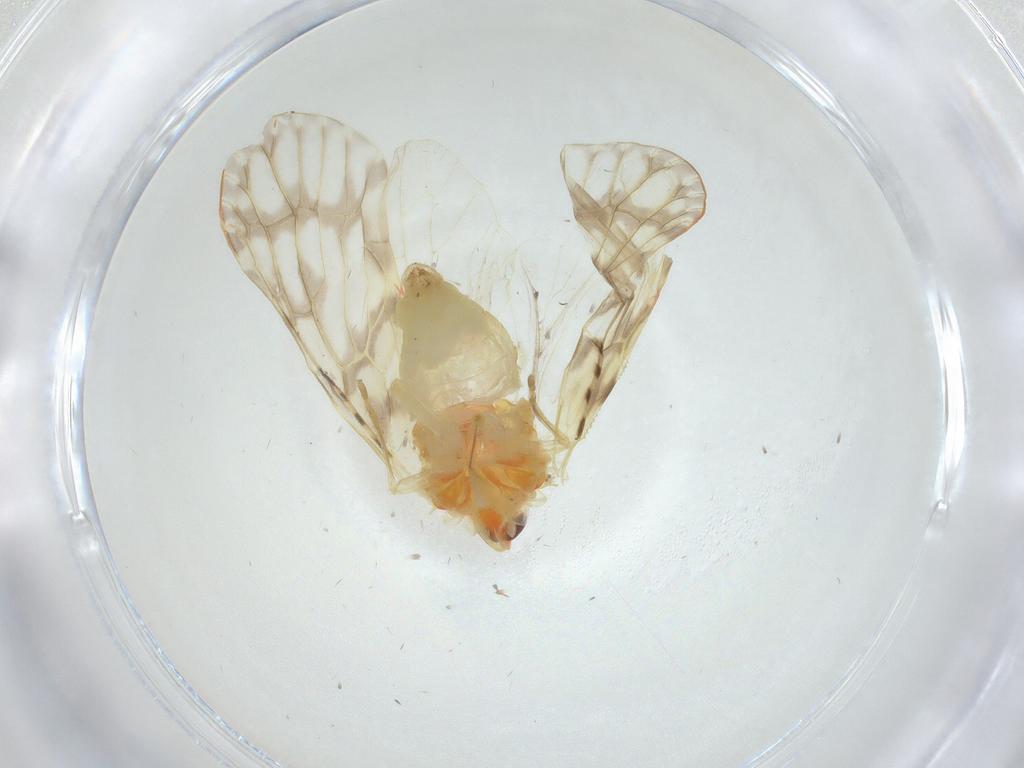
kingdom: Animalia
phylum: Arthropoda
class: Insecta
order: Hemiptera
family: Derbidae
